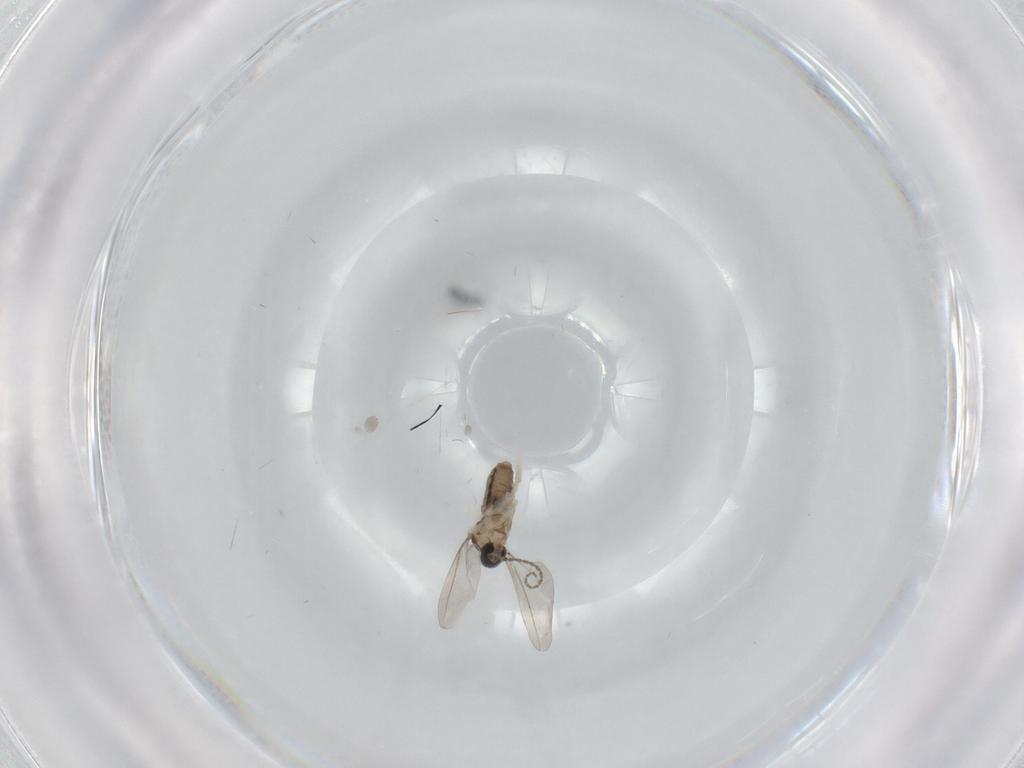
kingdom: Animalia
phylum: Arthropoda
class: Insecta
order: Diptera
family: Cecidomyiidae
